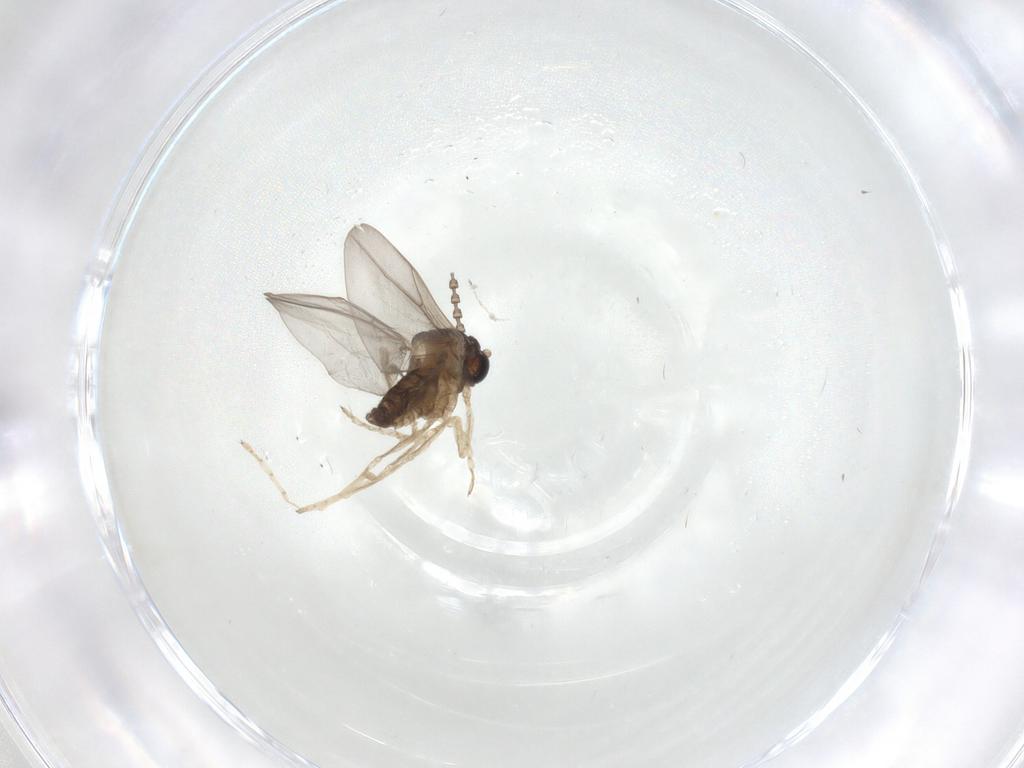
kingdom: Animalia
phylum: Arthropoda
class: Insecta
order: Diptera
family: Cecidomyiidae
